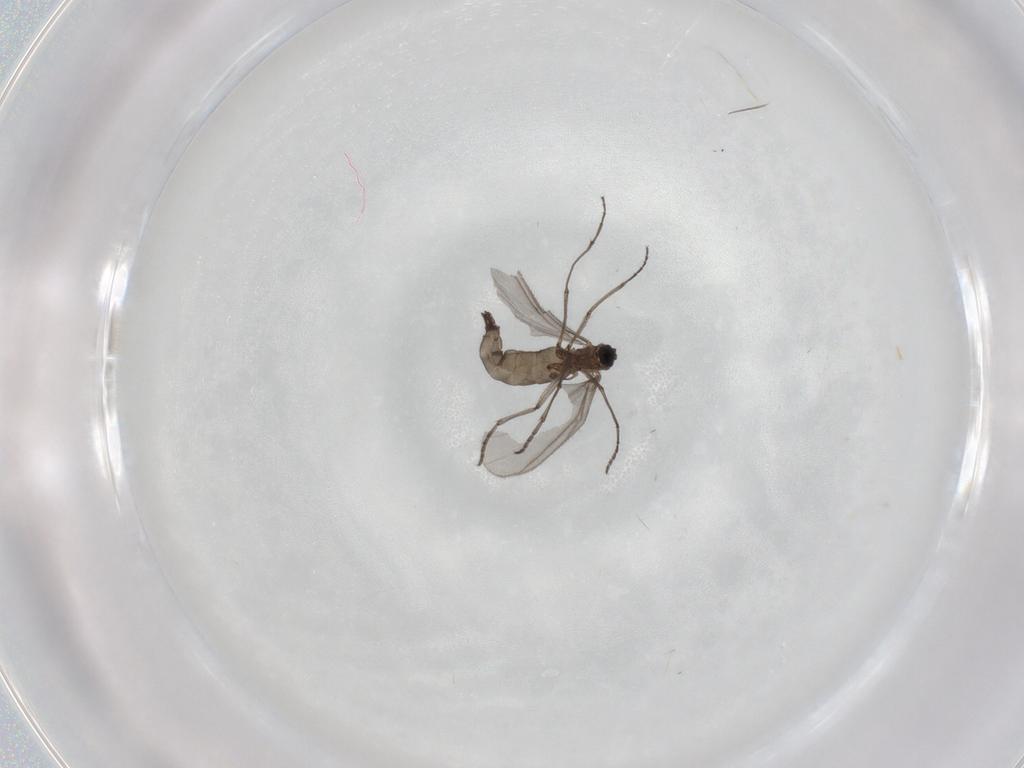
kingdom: Animalia
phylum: Arthropoda
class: Insecta
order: Diptera
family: Sciaridae
